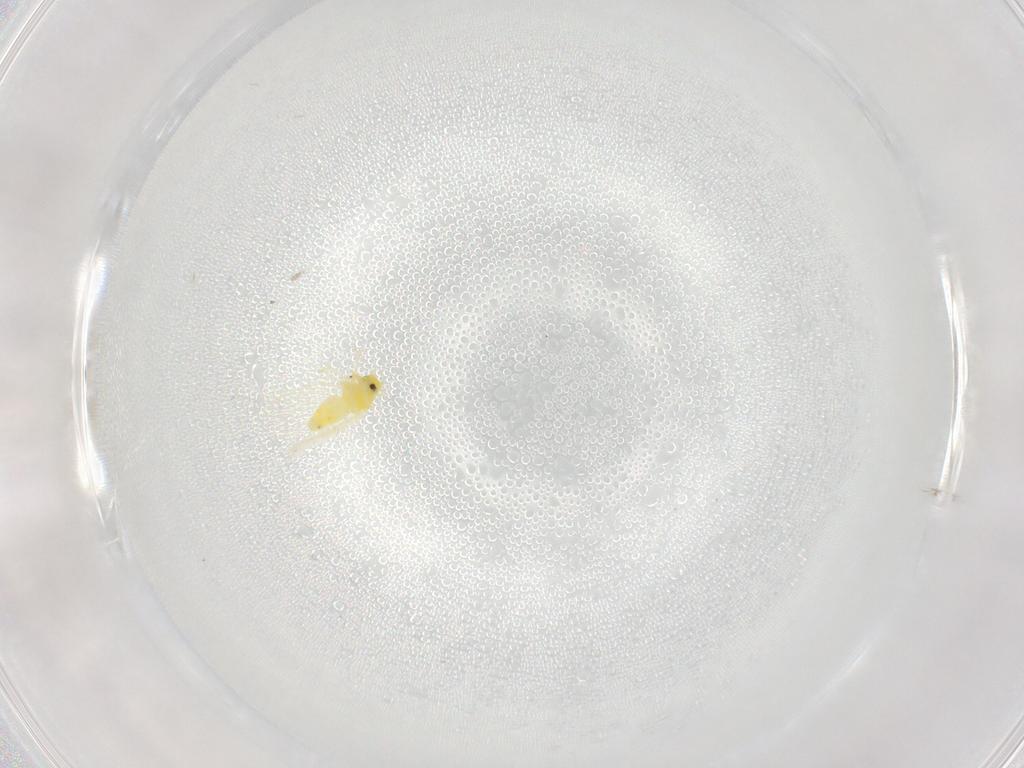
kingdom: Animalia
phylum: Arthropoda
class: Insecta
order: Hemiptera
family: Aleyrodidae
